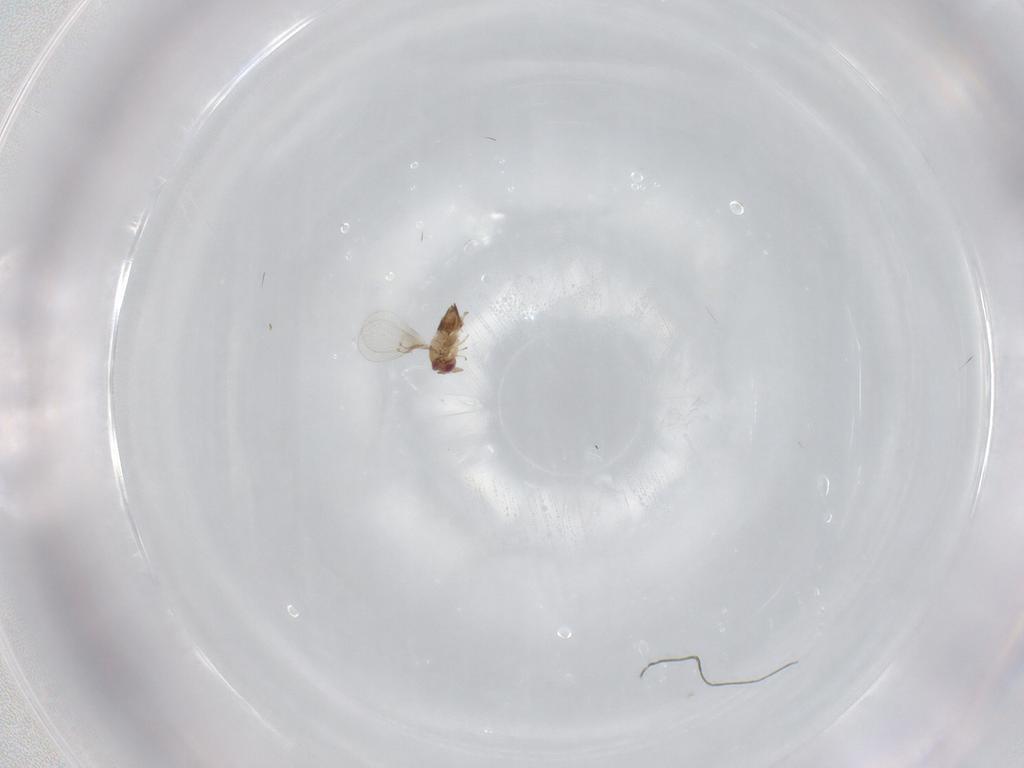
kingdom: Animalia
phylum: Arthropoda
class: Insecta
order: Hymenoptera
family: Trichogrammatidae
